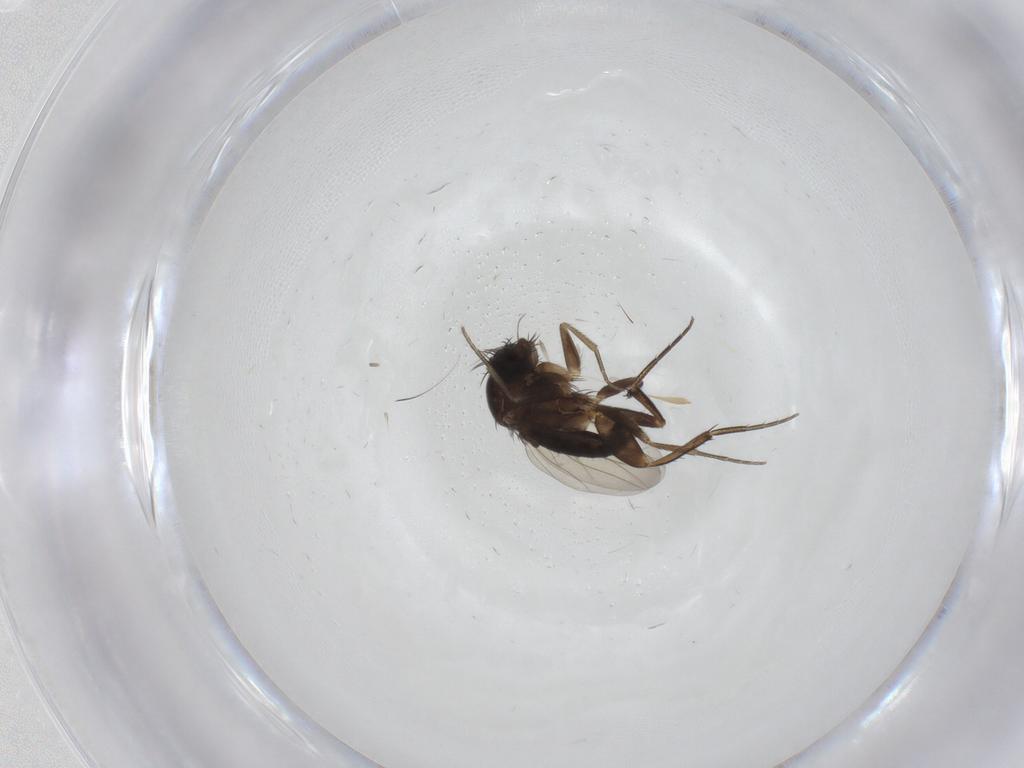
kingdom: Animalia
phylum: Arthropoda
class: Insecta
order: Diptera
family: Phoridae
